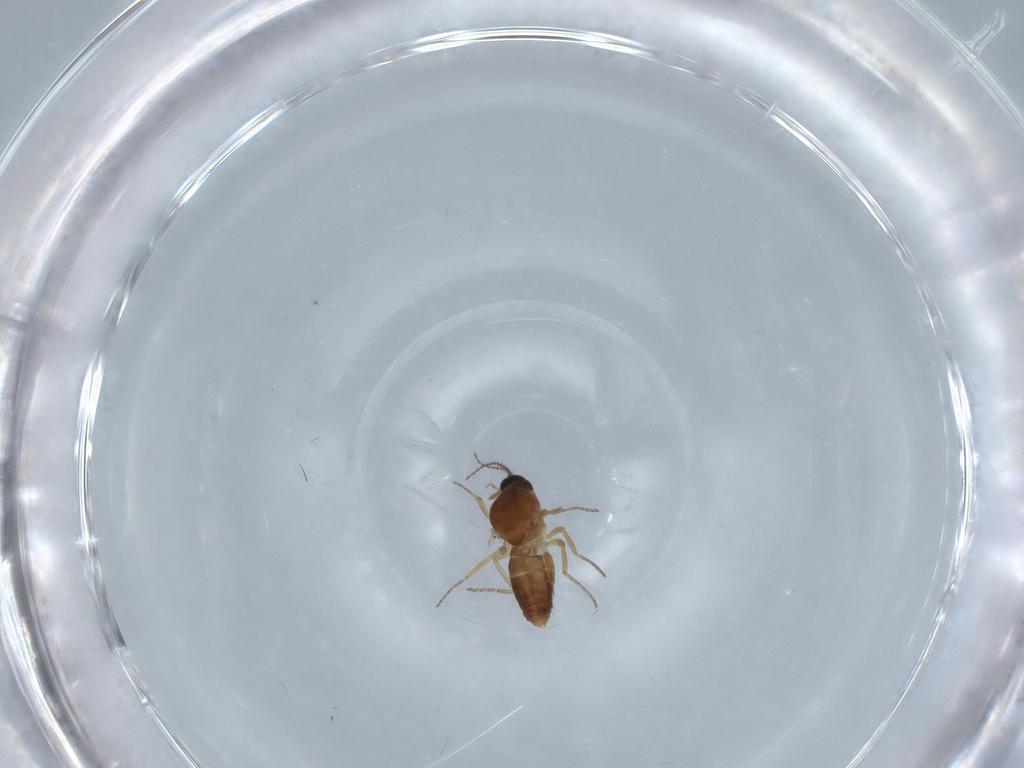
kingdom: Animalia
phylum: Arthropoda
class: Insecta
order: Diptera
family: Ceratopogonidae
